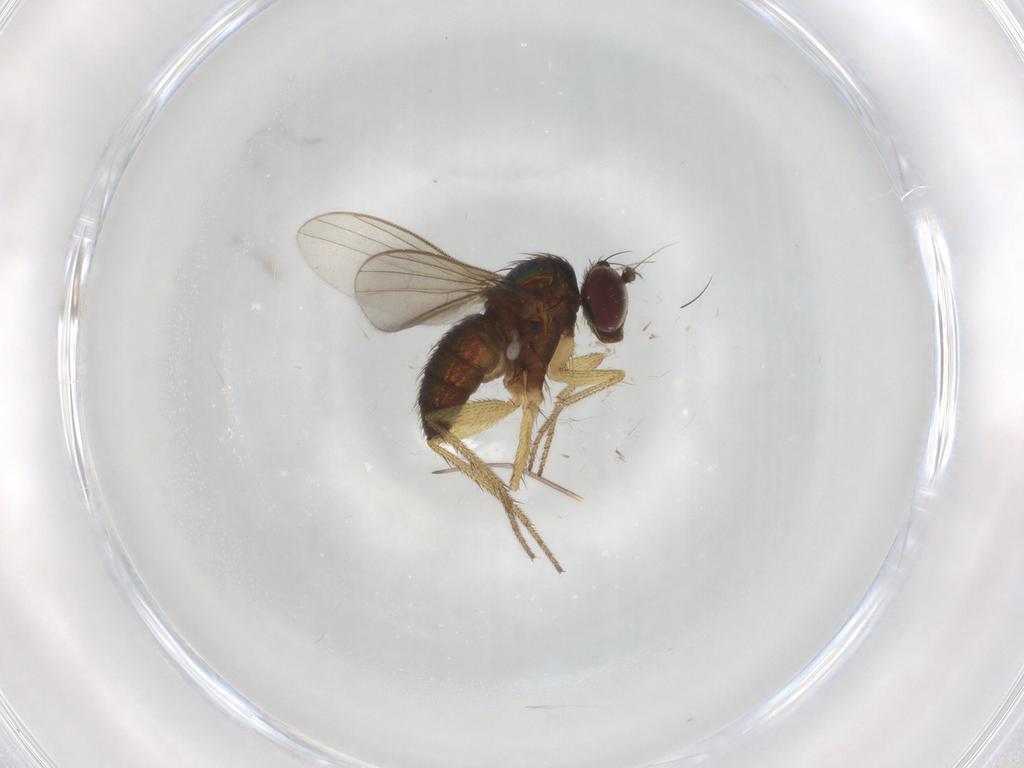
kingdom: Animalia
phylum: Arthropoda
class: Insecta
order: Diptera
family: Dolichopodidae
